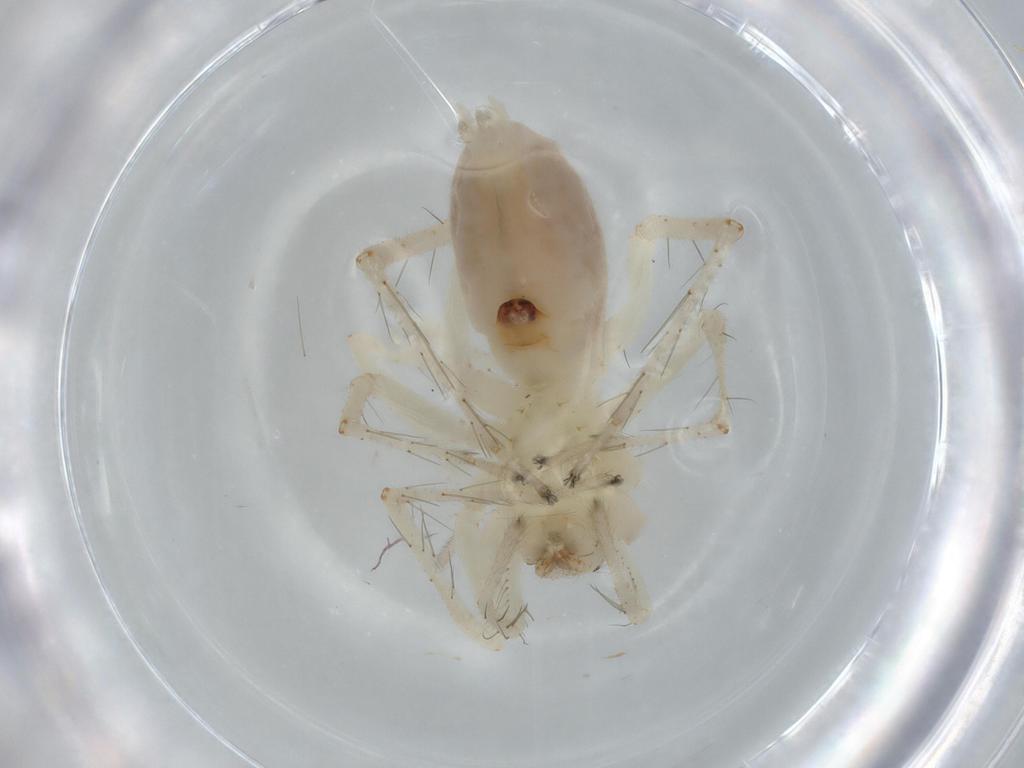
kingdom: Animalia
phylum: Arthropoda
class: Arachnida
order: Araneae
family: Anyphaenidae
